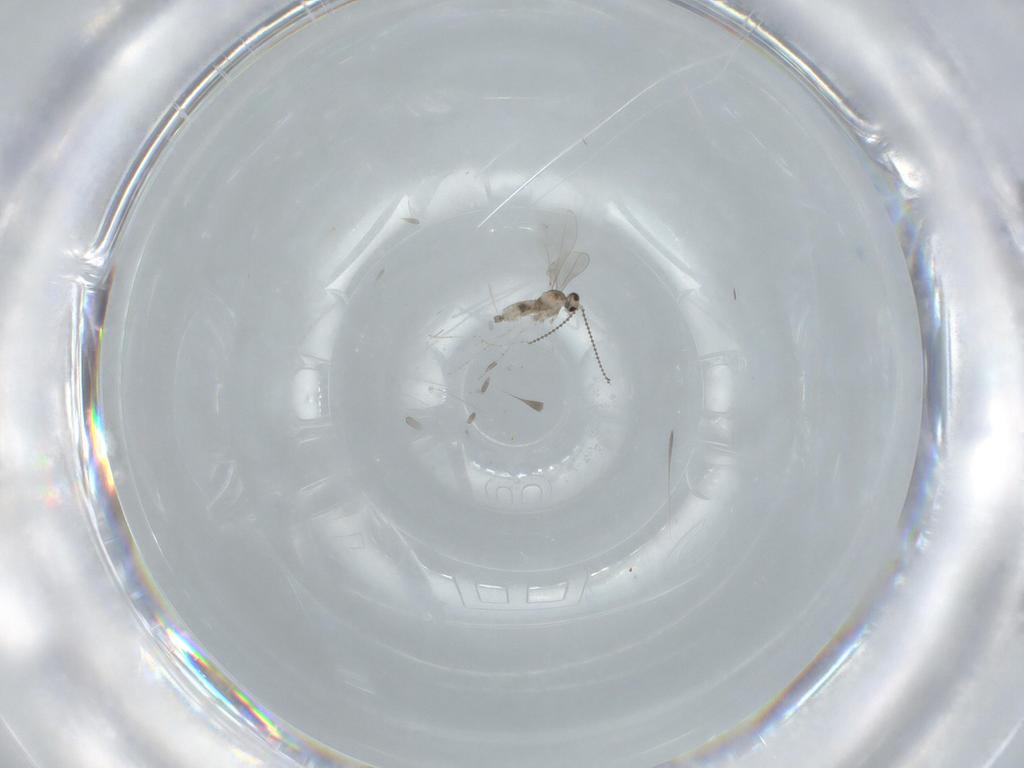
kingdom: Animalia
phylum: Arthropoda
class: Insecta
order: Diptera
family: Cecidomyiidae
